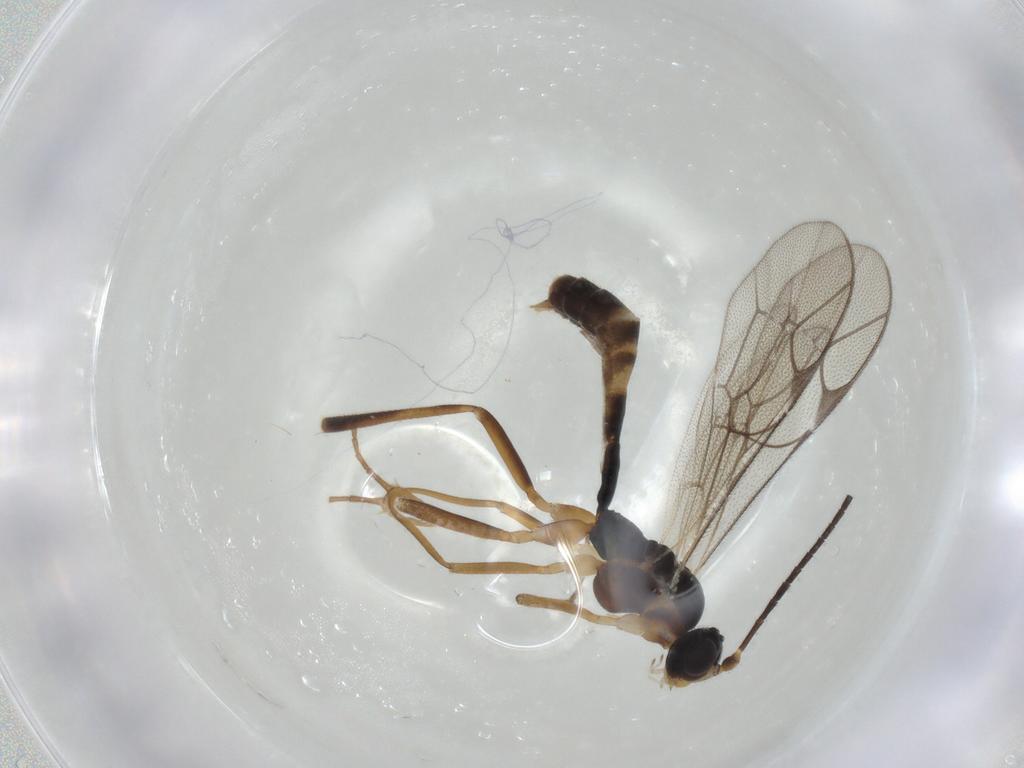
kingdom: Animalia
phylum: Arthropoda
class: Insecta
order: Hymenoptera
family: Ichneumonidae
